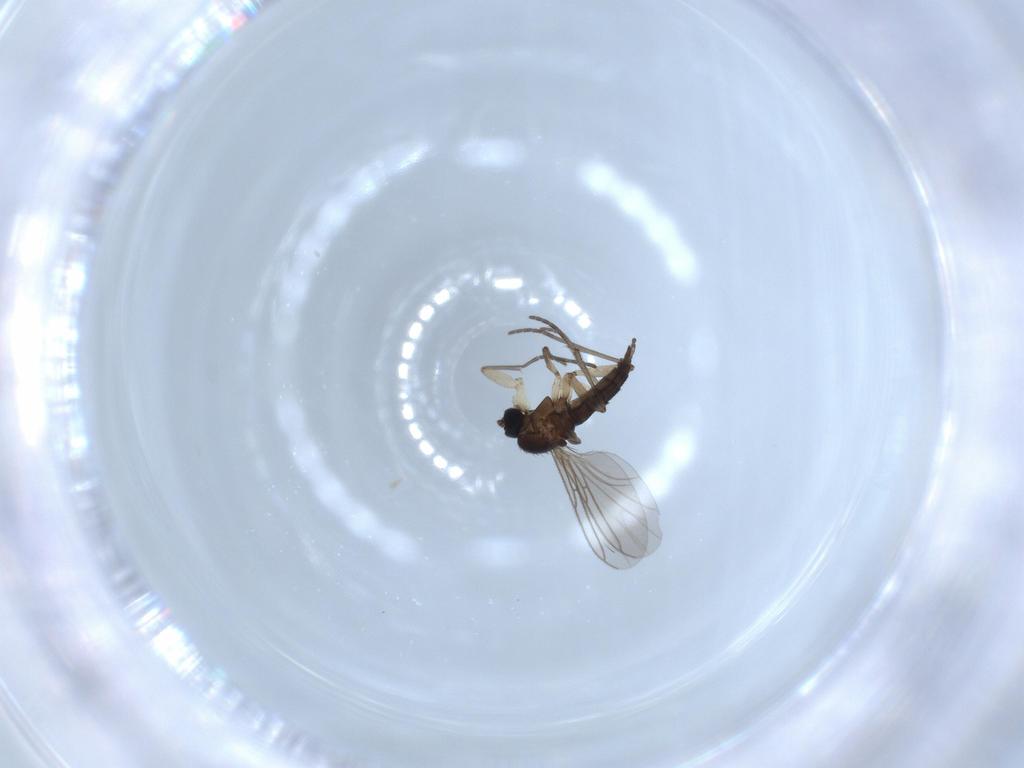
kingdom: Animalia
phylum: Arthropoda
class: Insecta
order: Diptera
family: Sciaridae
